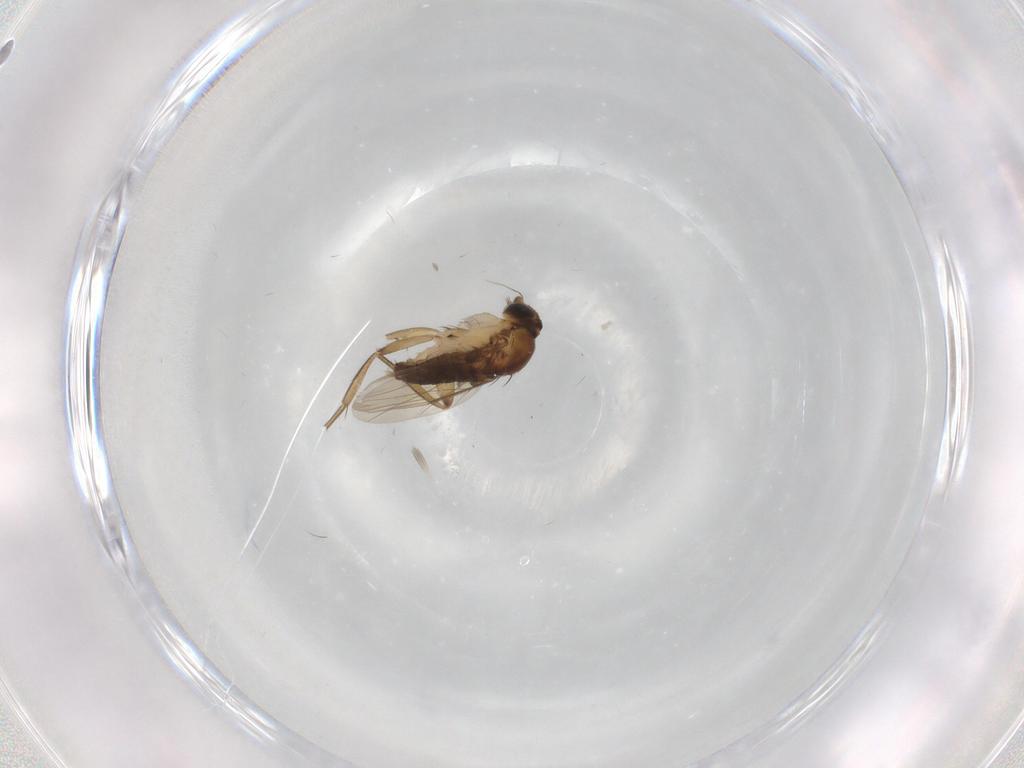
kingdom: Animalia
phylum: Arthropoda
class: Insecta
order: Diptera
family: Phoridae
